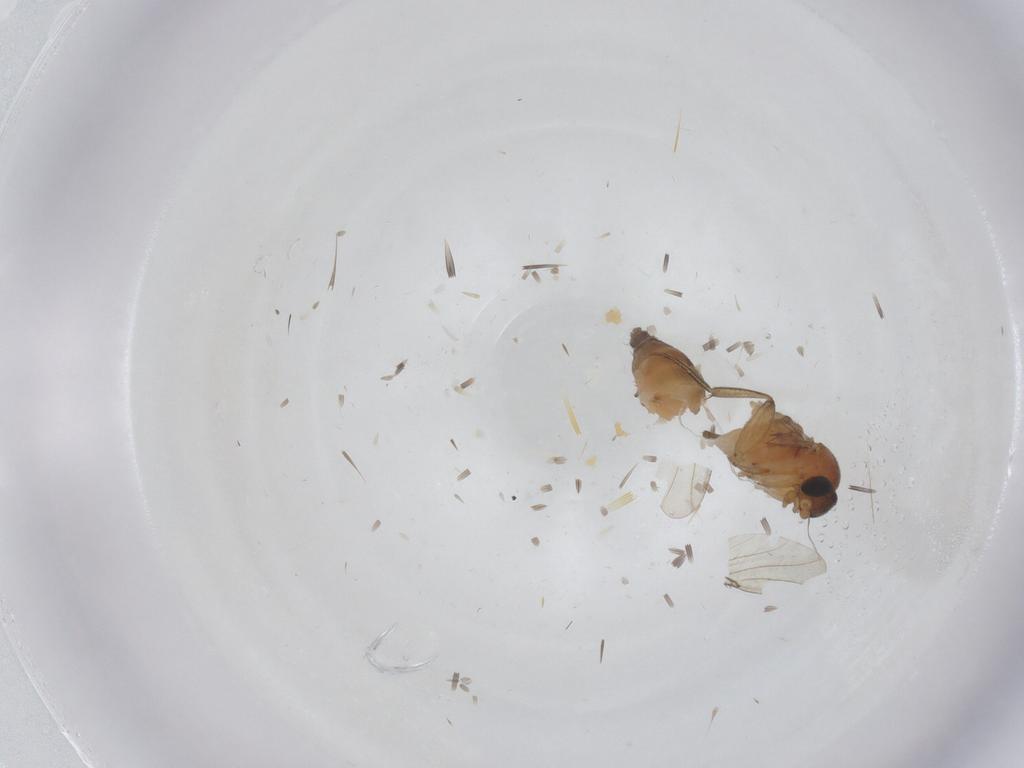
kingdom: Animalia
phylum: Arthropoda
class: Insecta
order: Diptera
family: Phoridae
